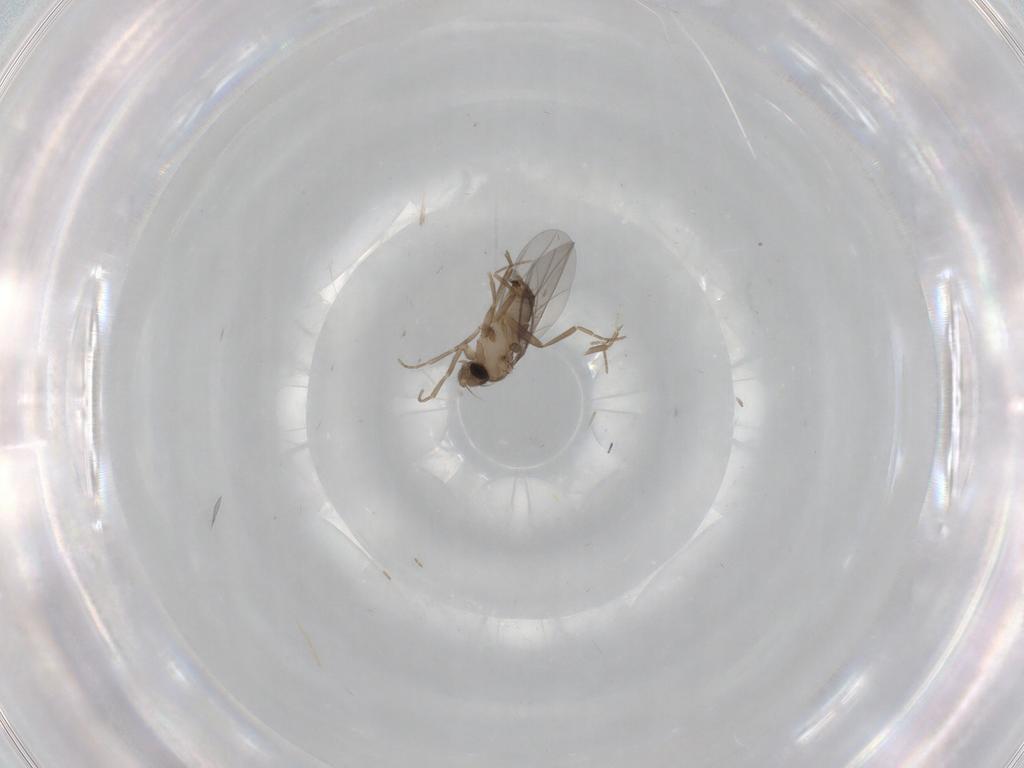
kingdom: Animalia
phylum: Arthropoda
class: Insecta
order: Diptera
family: Cecidomyiidae
